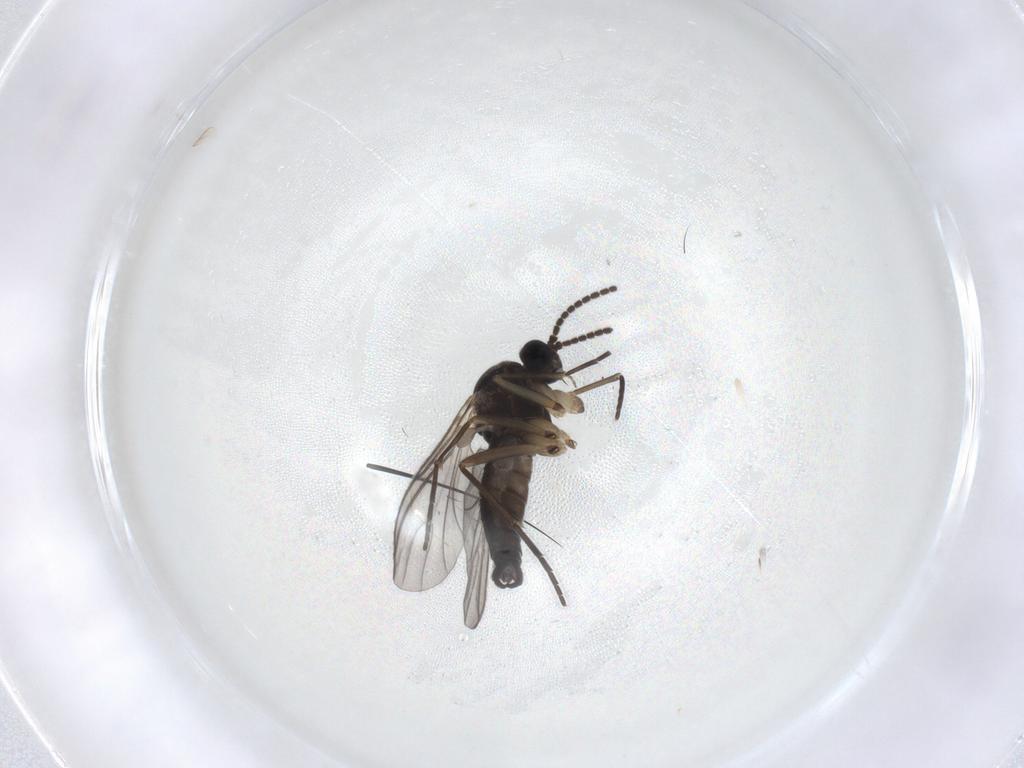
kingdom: Animalia
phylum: Arthropoda
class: Insecta
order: Diptera
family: Sciaridae
